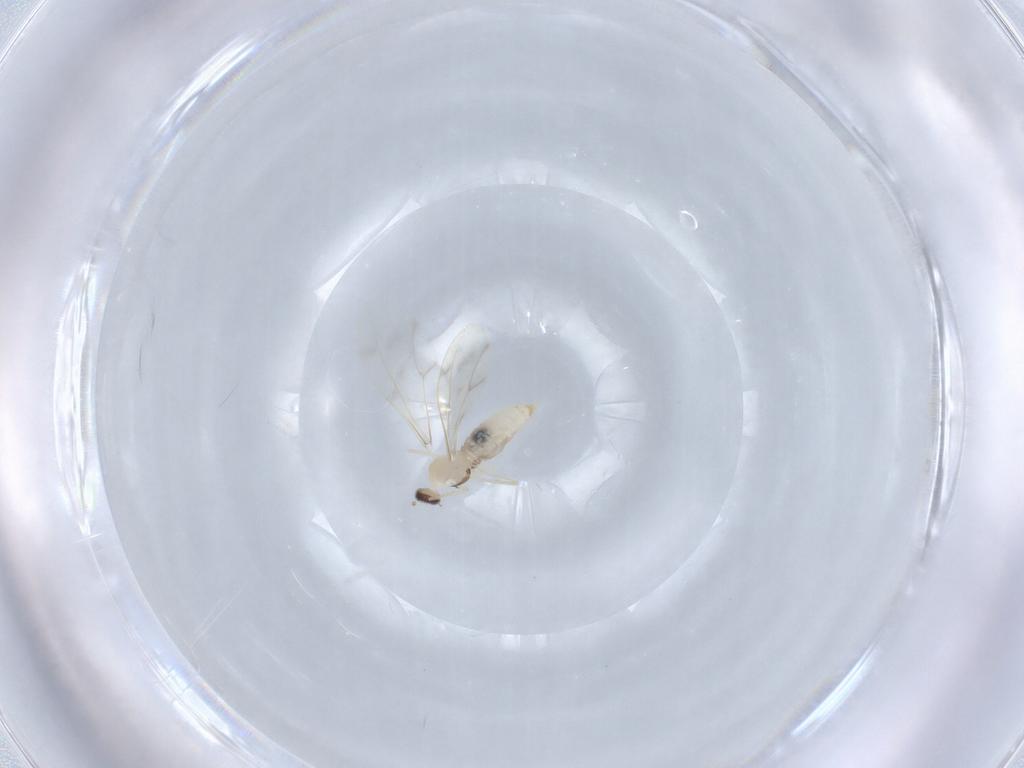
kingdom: Animalia
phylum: Arthropoda
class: Insecta
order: Diptera
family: Cecidomyiidae
